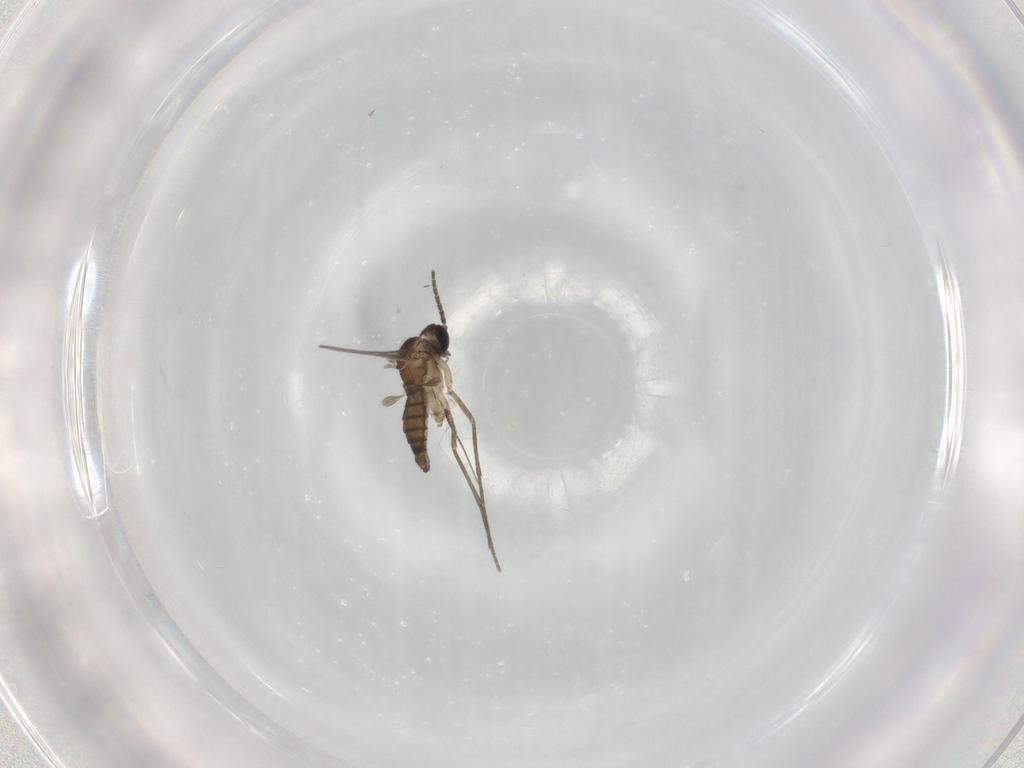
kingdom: Animalia
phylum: Arthropoda
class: Insecta
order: Diptera
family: Sciaridae
